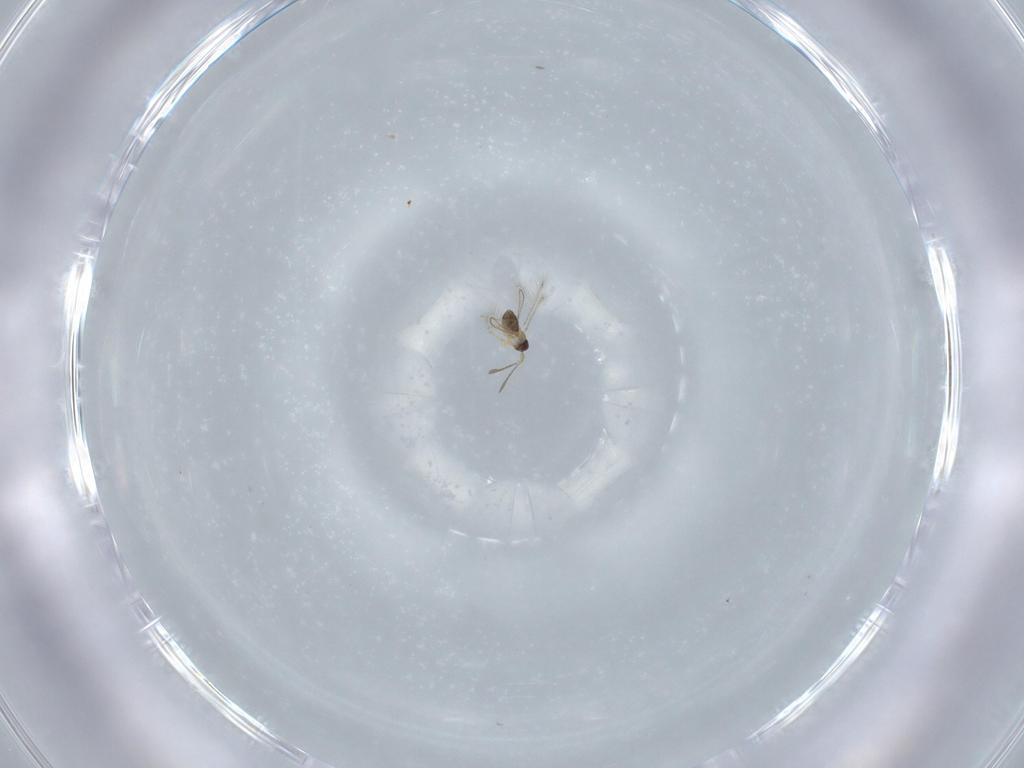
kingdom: Animalia
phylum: Arthropoda
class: Insecta
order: Hymenoptera
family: Mymaridae
